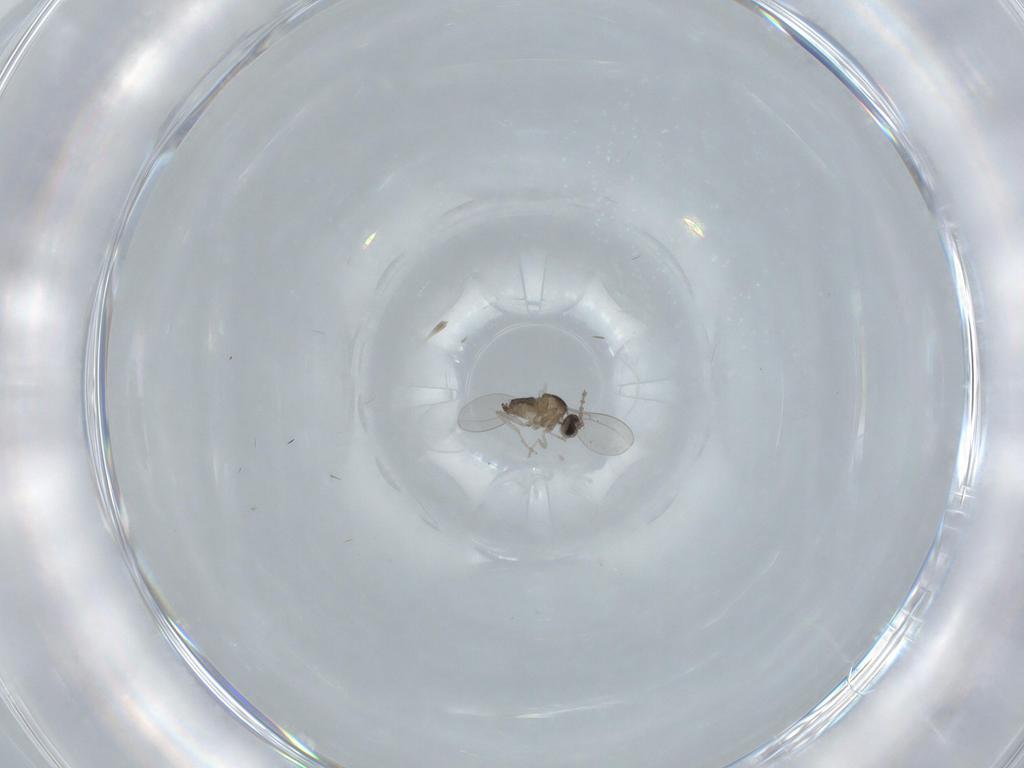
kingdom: Animalia
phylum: Arthropoda
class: Insecta
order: Diptera
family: Cecidomyiidae
